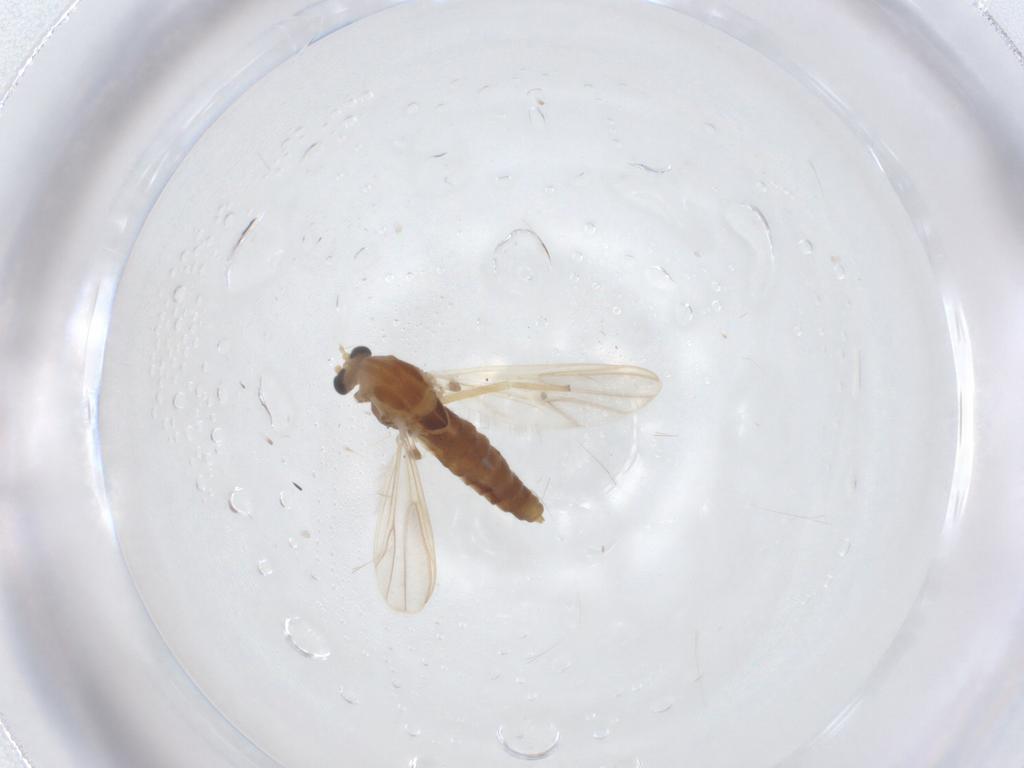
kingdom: Animalia
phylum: Arthropoda
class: Insecta
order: Diptera
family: Chironomidae
